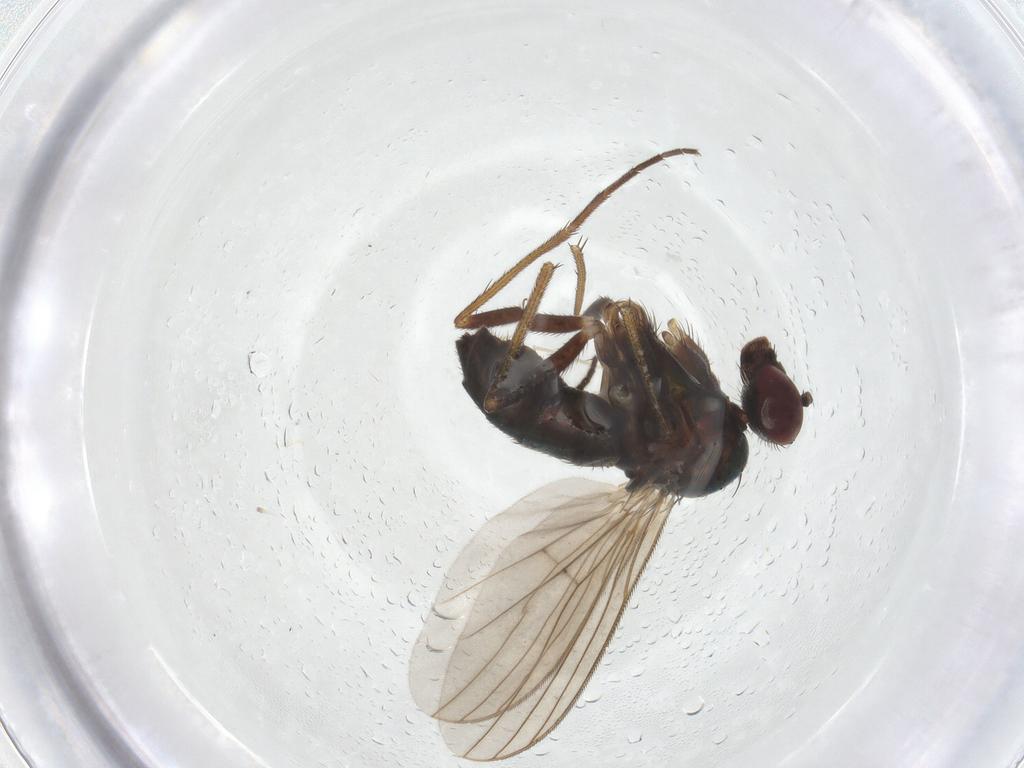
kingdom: Animalia
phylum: Arthropoda
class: Insecta
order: Diptera
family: Dolichopodidae
